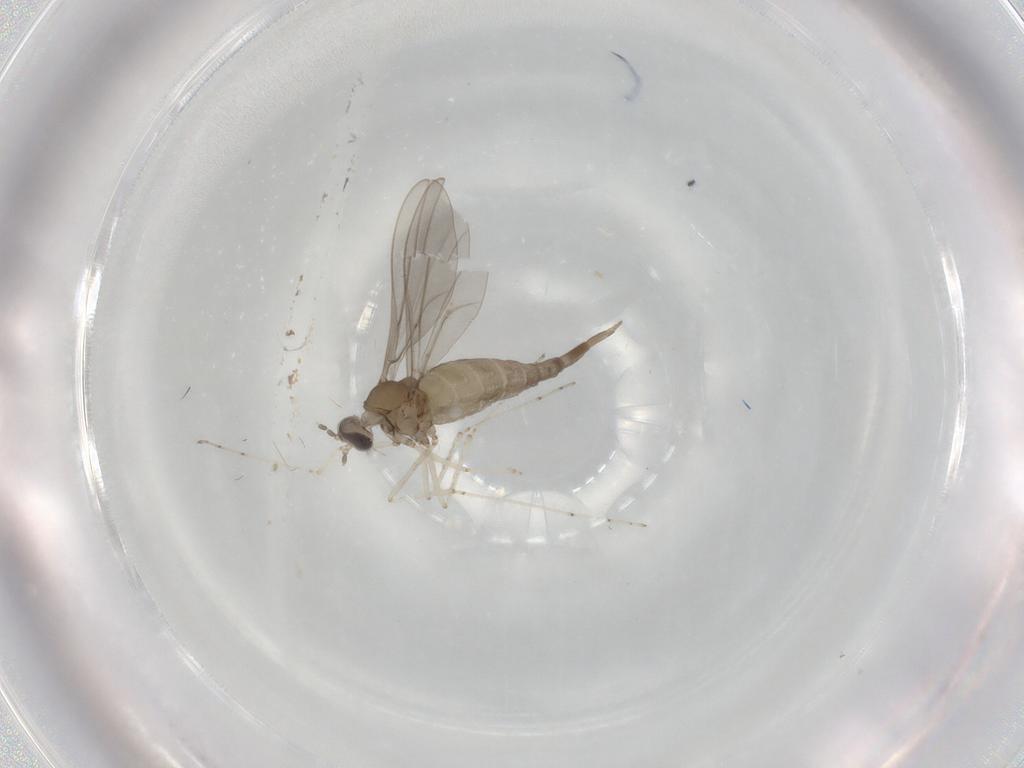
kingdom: Animalia
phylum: Arthropoda
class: Insecta
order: Diptera
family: Cecidomyiidae
